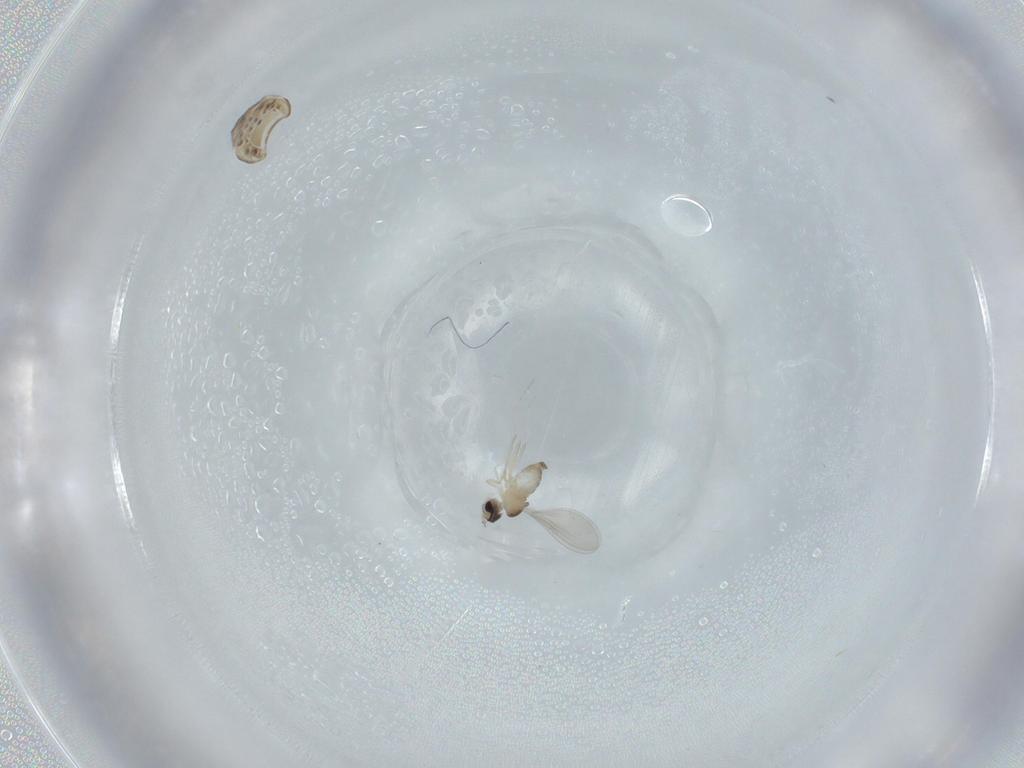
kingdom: Animalia
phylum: Arthropoda
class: Insecta
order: Diptera
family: Cecidomyiidae
